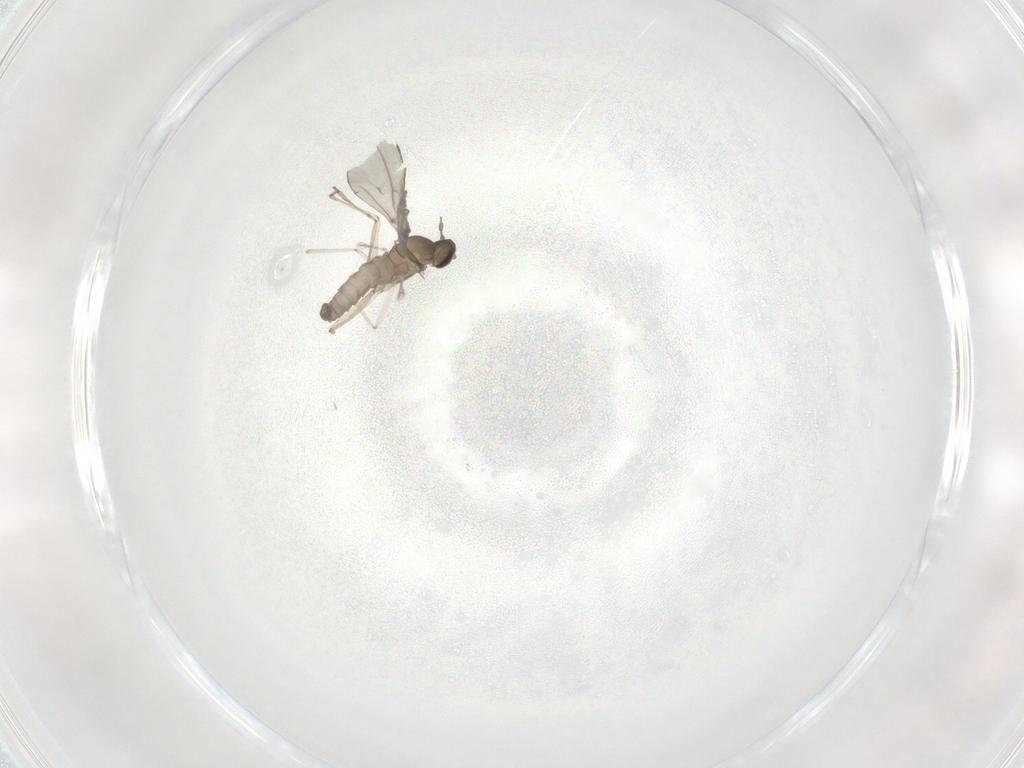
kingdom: Animalia
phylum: Arthropoda
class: Insecta
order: Diptera
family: Cecidomyiidae
